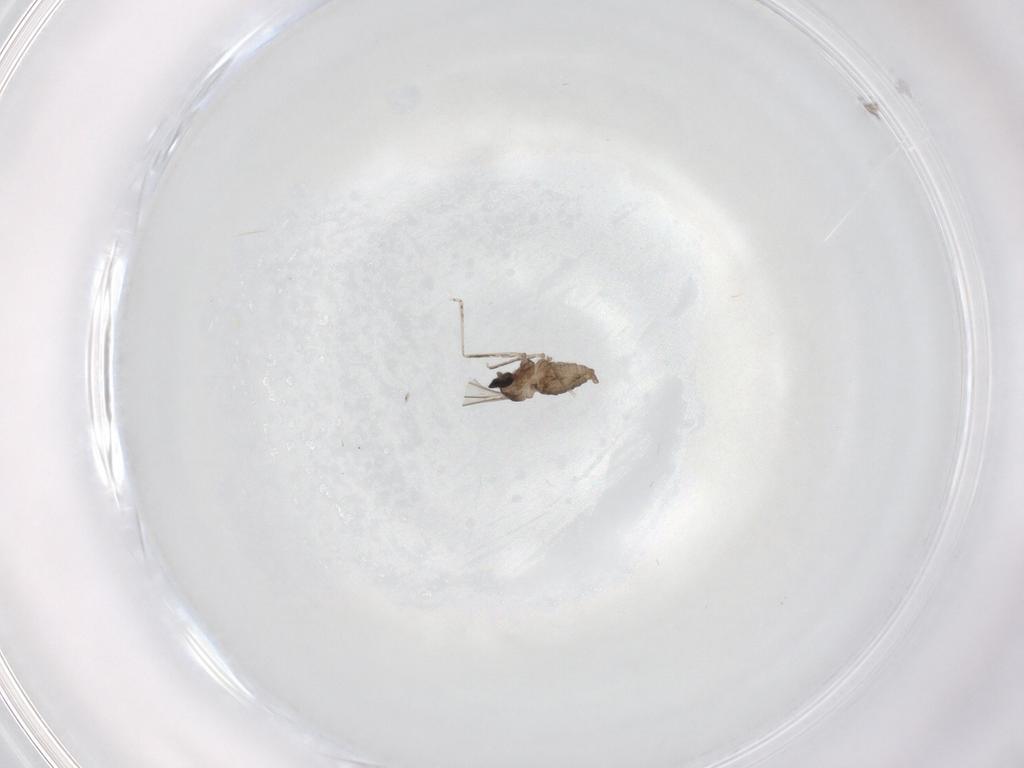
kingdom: Animalia
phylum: Arthropoda
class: Insecta
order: Diptera
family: Cecidomyiidae
